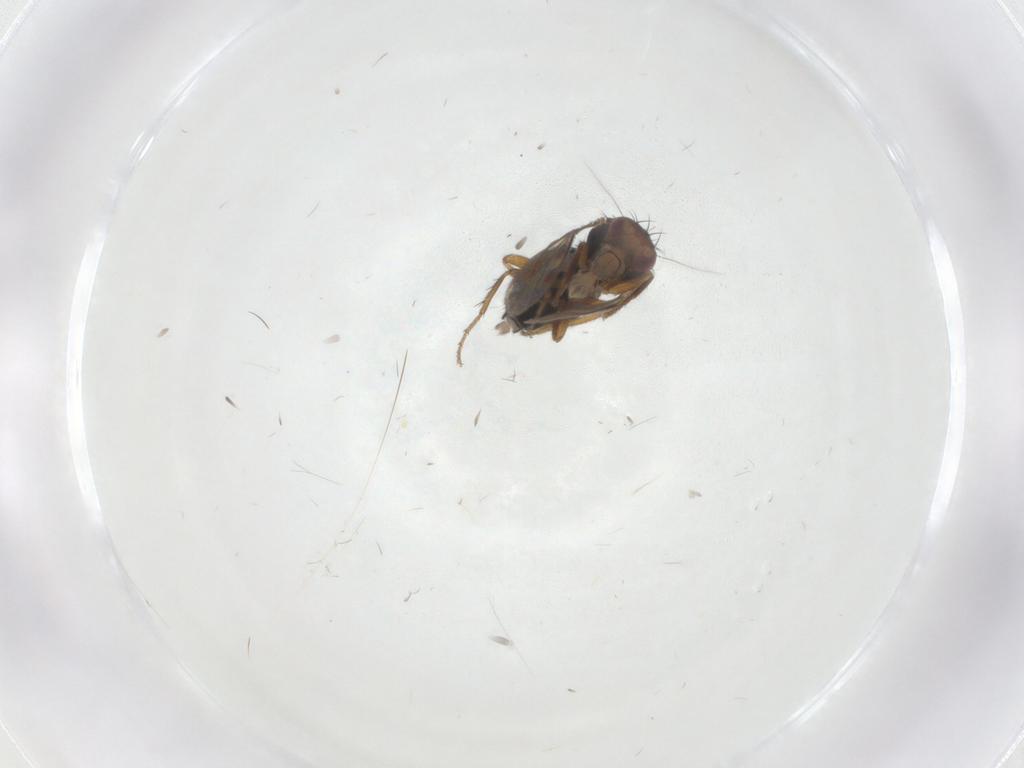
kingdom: Animalia
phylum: Arthropoda
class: Insecta
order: Diptera
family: Sphaeroceridae
